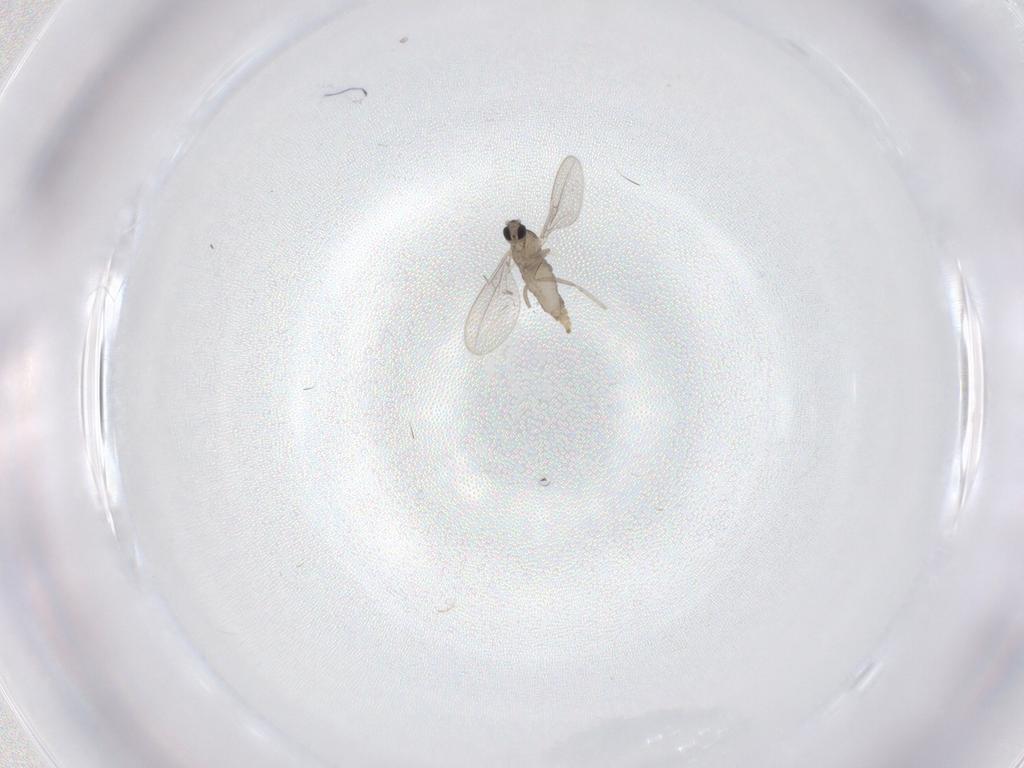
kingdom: Animalia
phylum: Arthropoda
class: Insecta
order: Diptera
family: Cecidomyiidae
